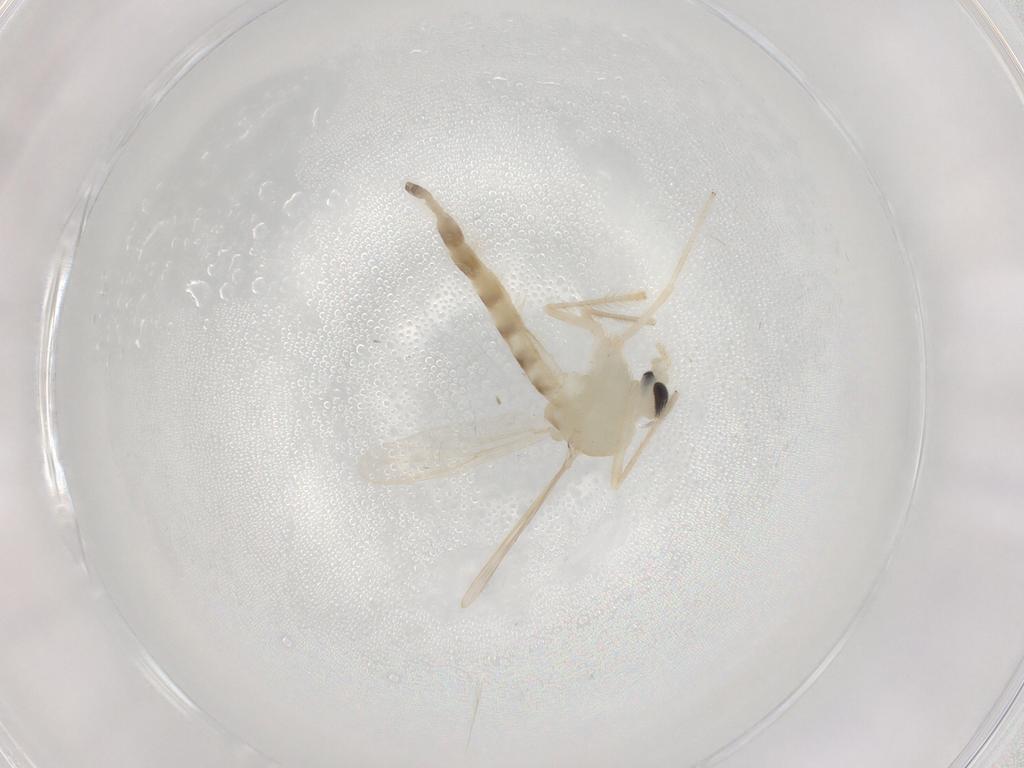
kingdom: Animalia
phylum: Arthropoda
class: Insecta
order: Diptera
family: Chironomidae
